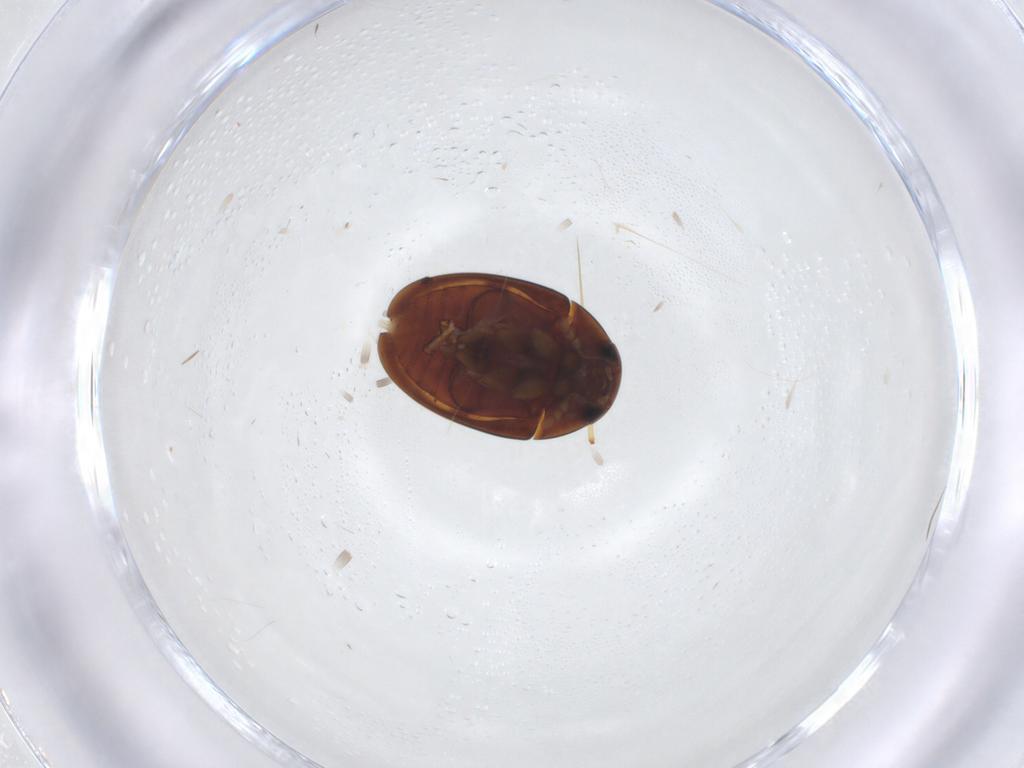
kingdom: Animalia
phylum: Arthropoda
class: Insecta
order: Coleoptera
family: Phalacridae
